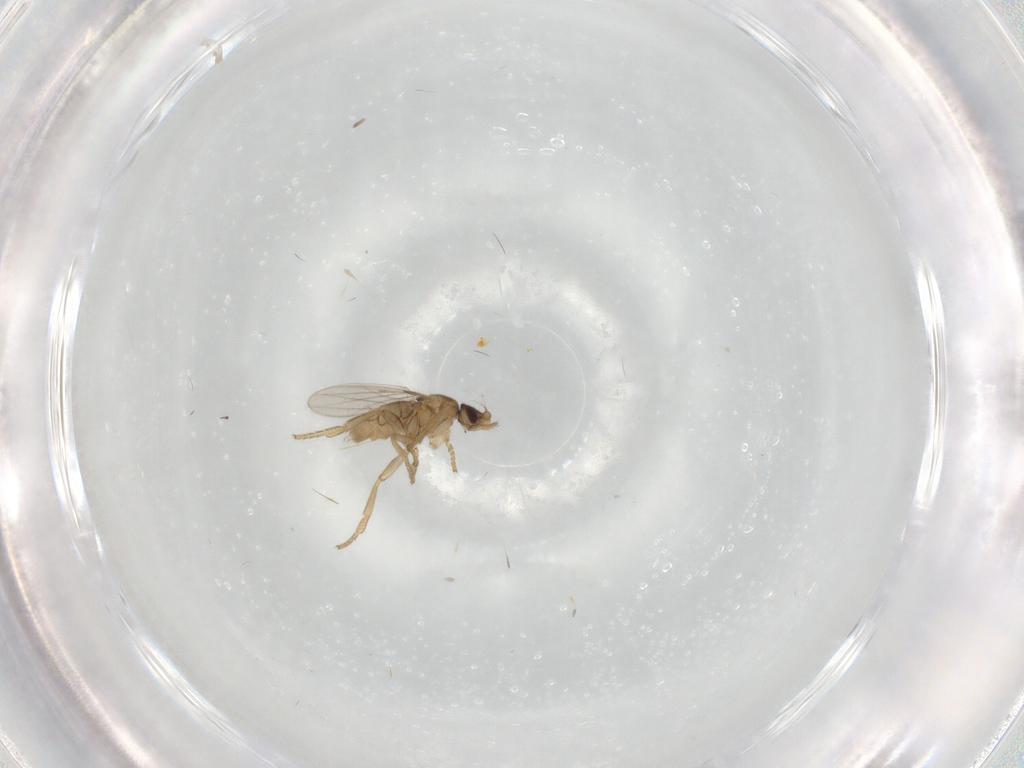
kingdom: Animalia
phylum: Arthropoda
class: Insecta
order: Diptera
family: Phoridae
